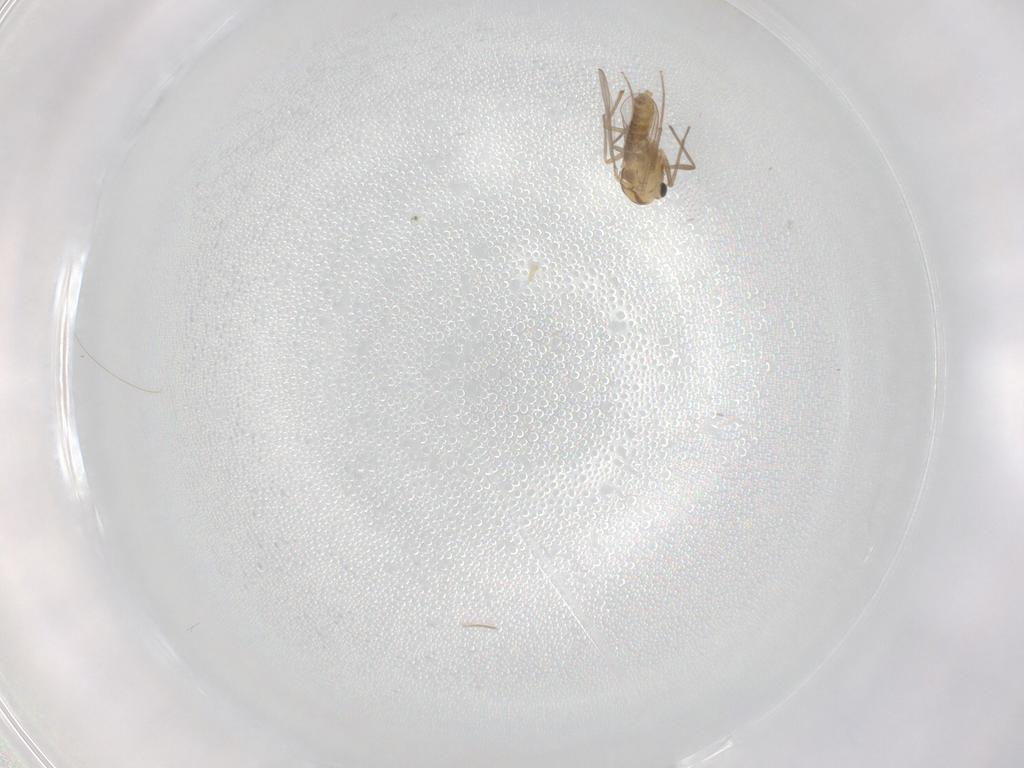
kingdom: Animalia
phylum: Arthropoda
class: Insecta
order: Diptera
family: Chironomidae
